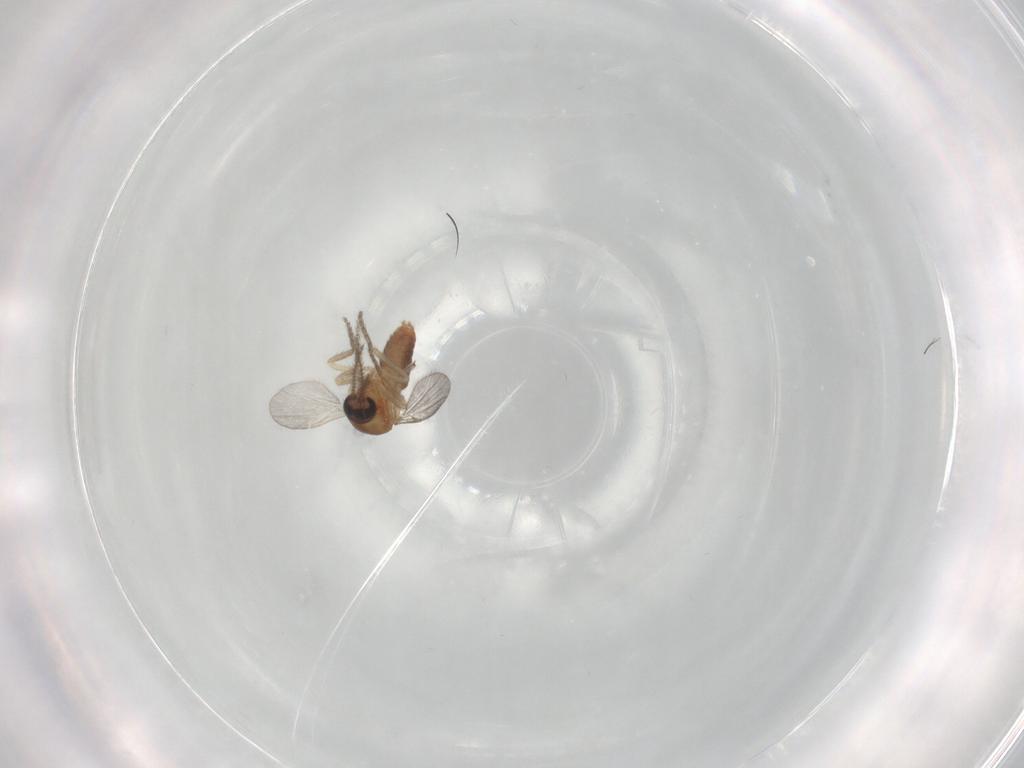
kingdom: Animalia
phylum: Arthropoda
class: Insecta
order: Diptera
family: Ceratopogonidae
